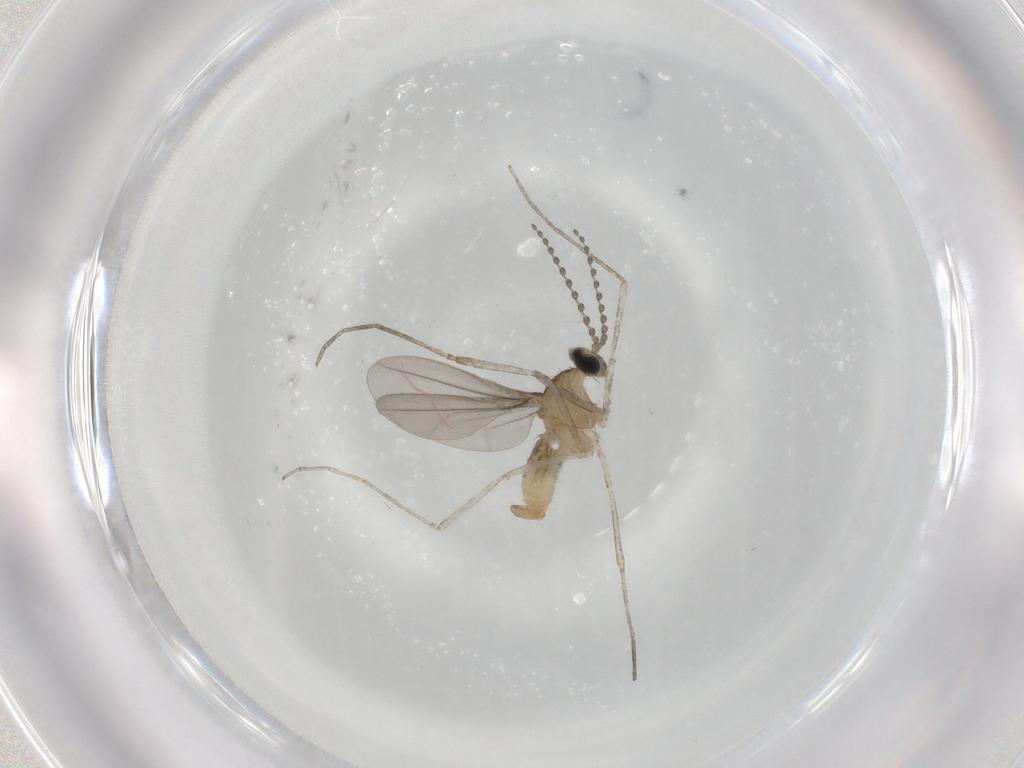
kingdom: Animalia
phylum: Arthropoda
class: Insecta
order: Diptera
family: Cecidomyiidae
